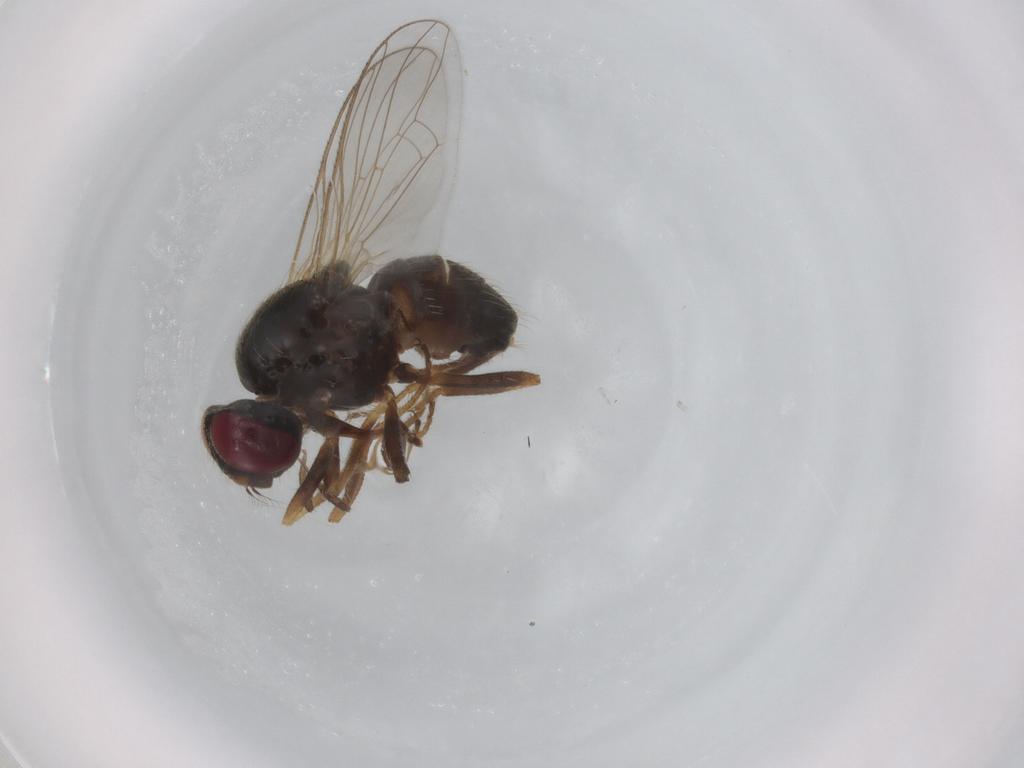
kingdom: Animalia
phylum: Arthropoda
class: Insecta
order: Diptera
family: Muscidae
